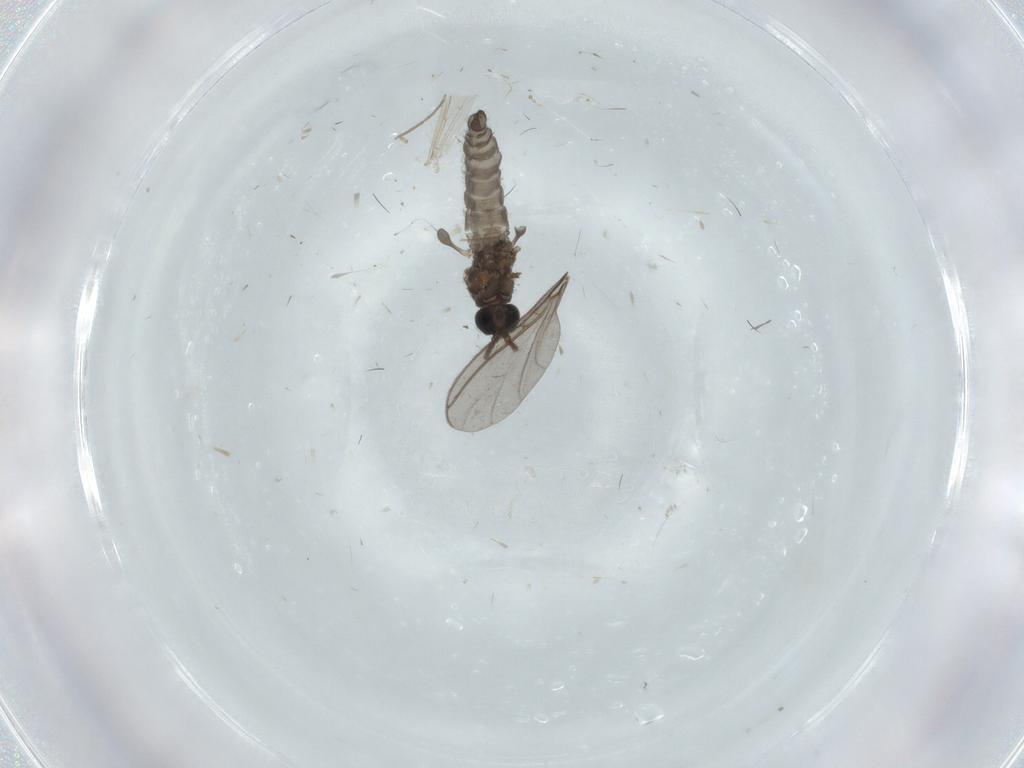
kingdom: Animalia
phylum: Arthropoda
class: Insecta
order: Diptera
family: Sciaridae
